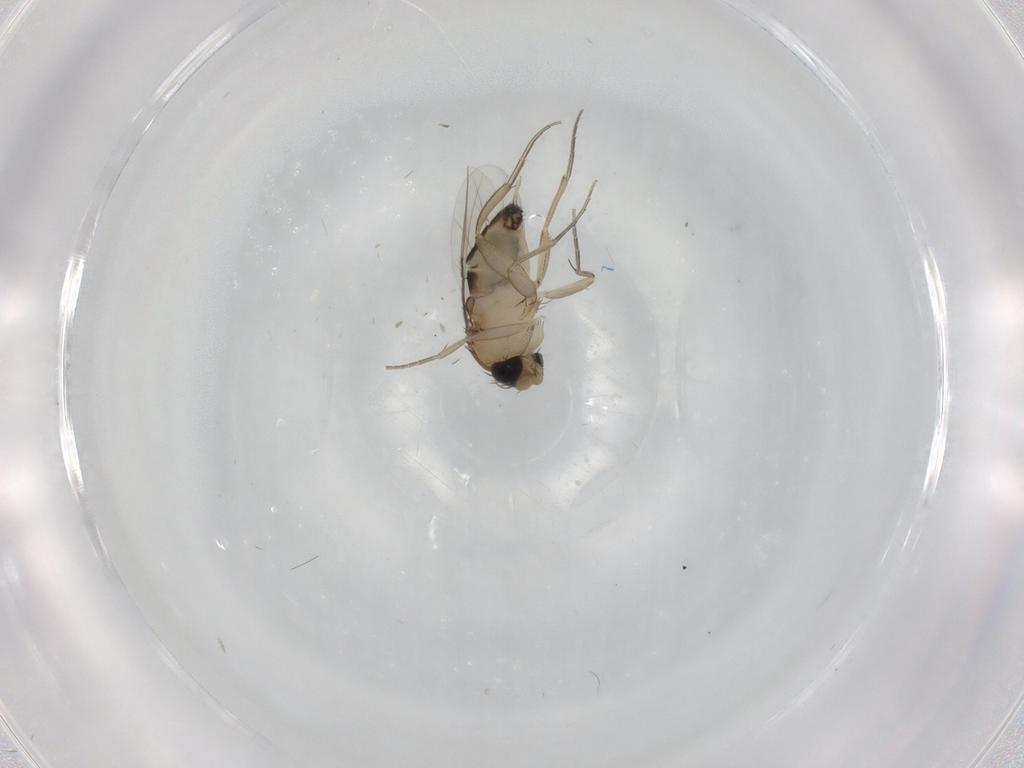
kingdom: Animalia
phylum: Arthropoda
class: Insecta
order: Diptera
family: Phoridae
